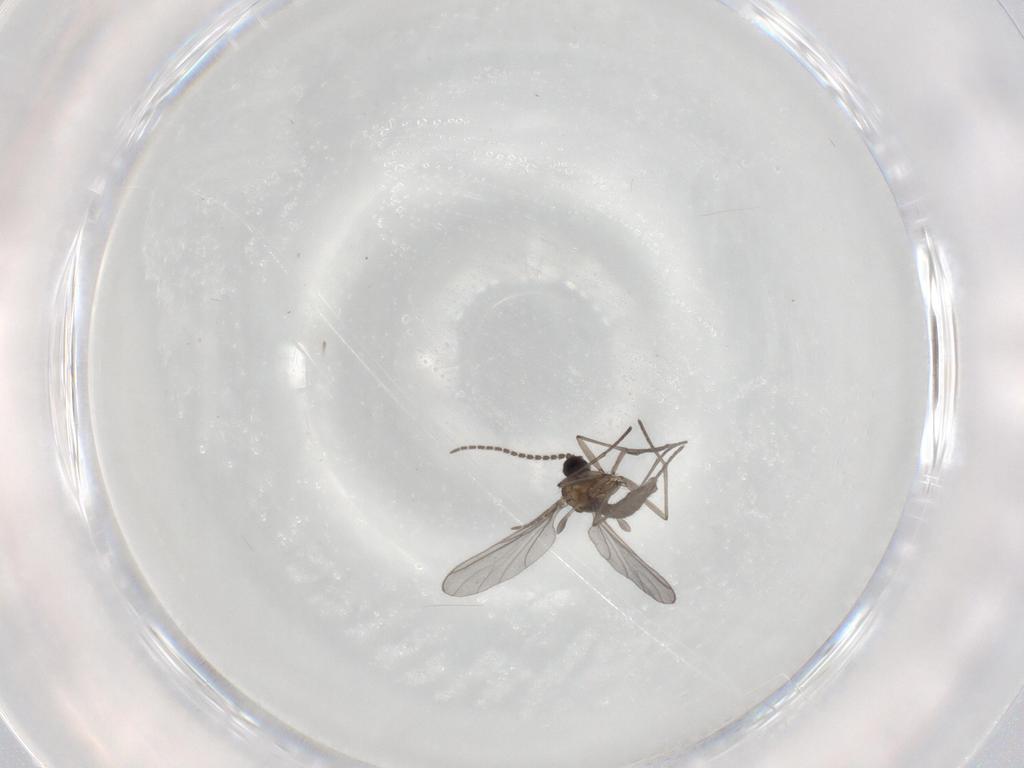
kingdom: Animalia
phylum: Arthropoda
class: Insecta
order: Diptera
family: Sciaridae
